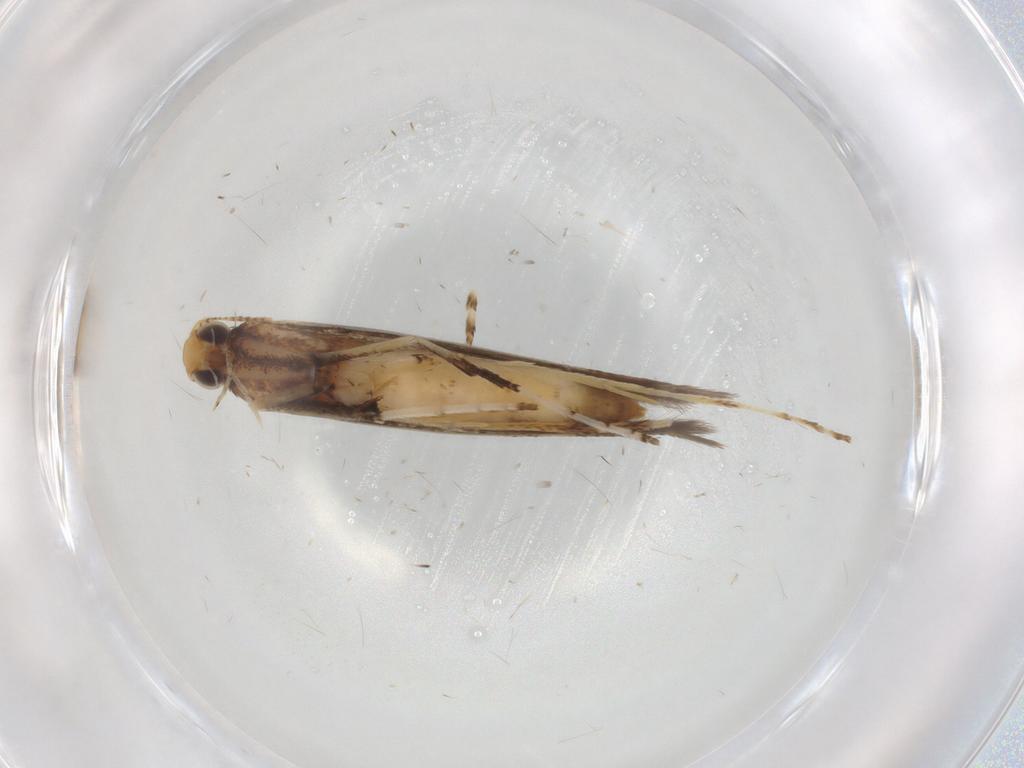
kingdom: Animalia
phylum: Arthropoda
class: Insecta
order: Lepidoptera
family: Gracillariidae
